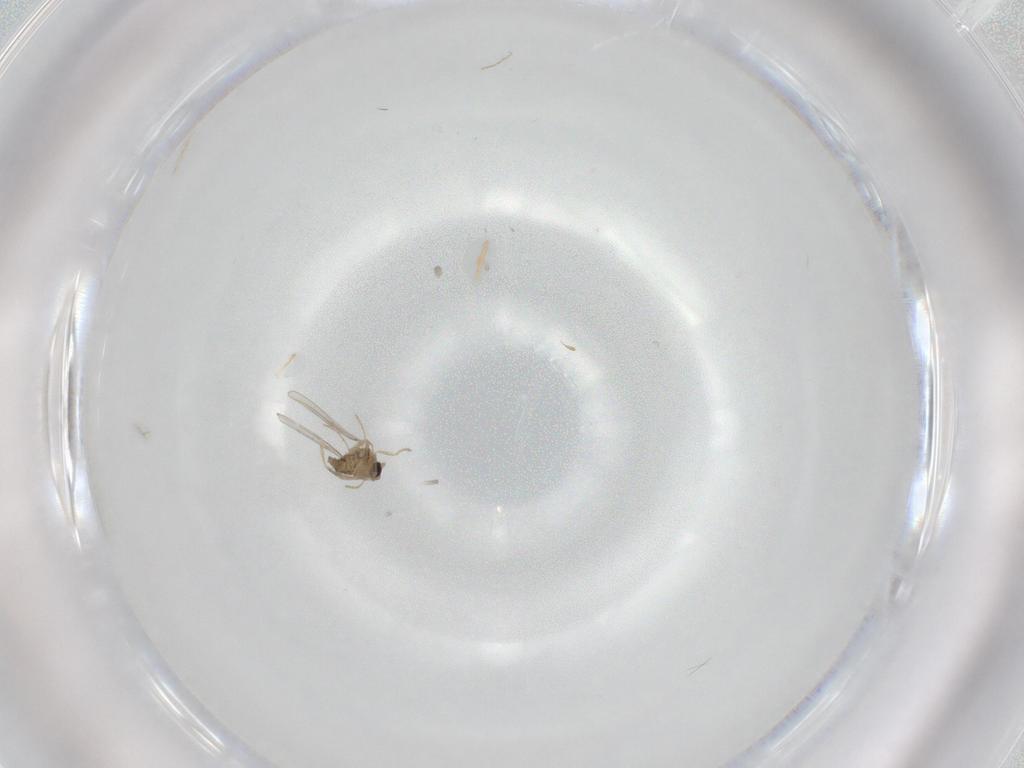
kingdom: Animalia
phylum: Arthropoda
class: Insecta
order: Diptera
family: Cecidomyiidae
